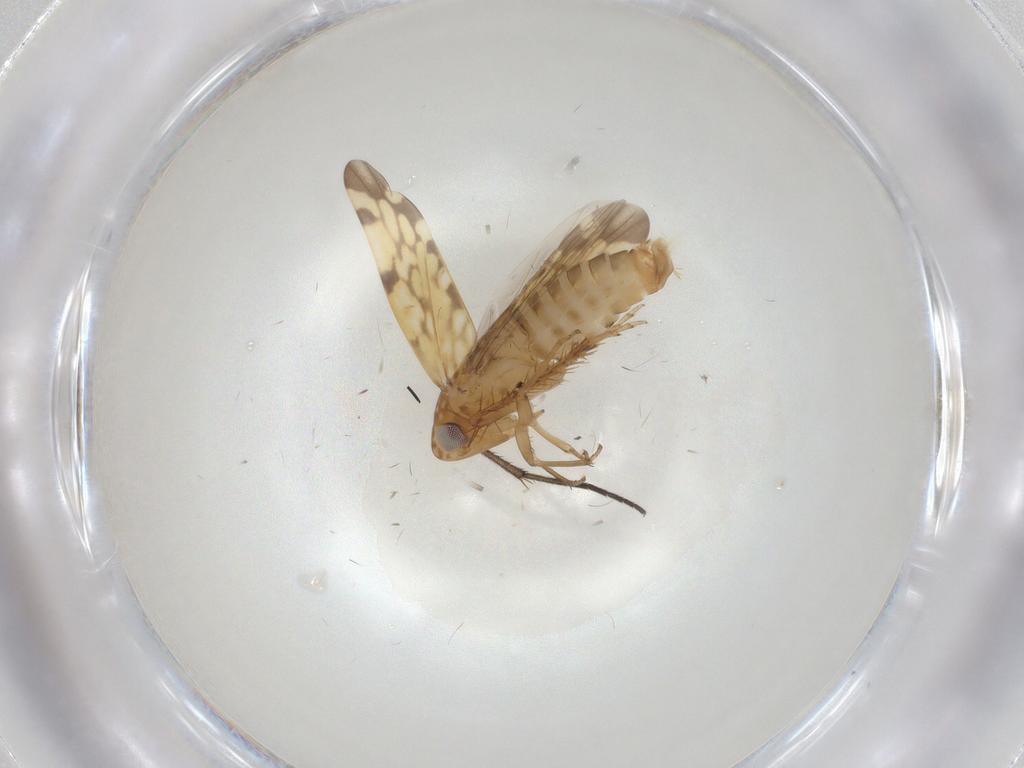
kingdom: Animalia
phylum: Arthropoda
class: Insecta
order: Hemiptera
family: Cicadellidae
